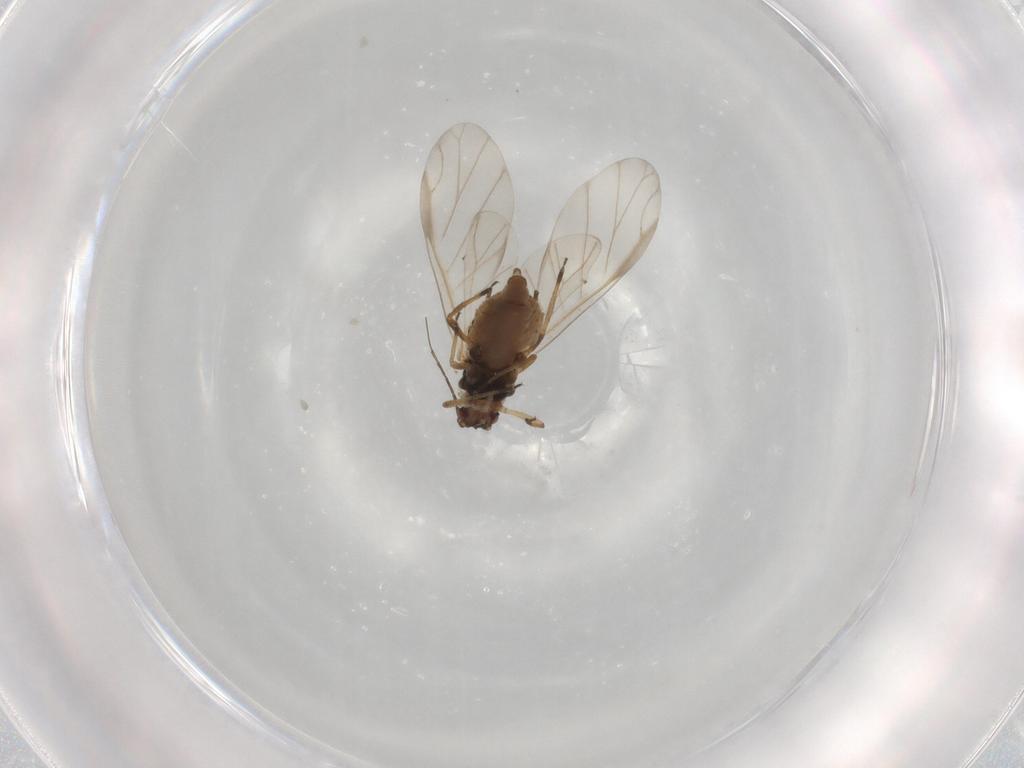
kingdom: Animalia
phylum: Arthropoda
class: Insecta
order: Hemiptera
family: Aphididae
